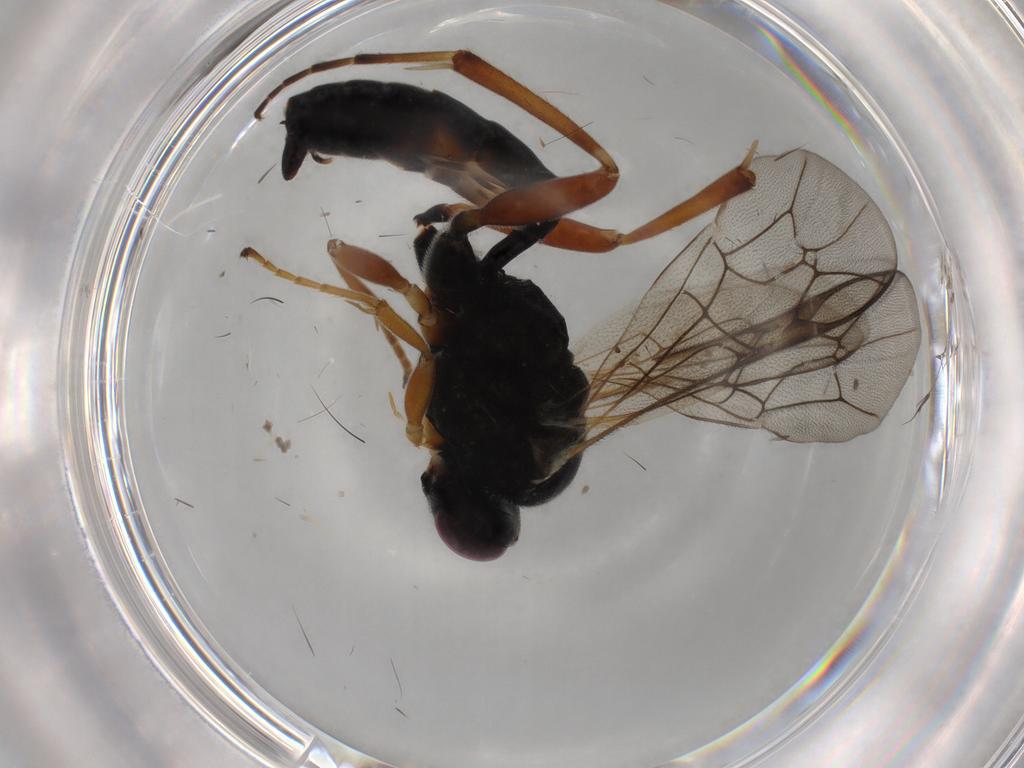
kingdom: Animalia
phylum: Arthropoda
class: Insecta
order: Hymenoptera
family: Ichneumonidae
